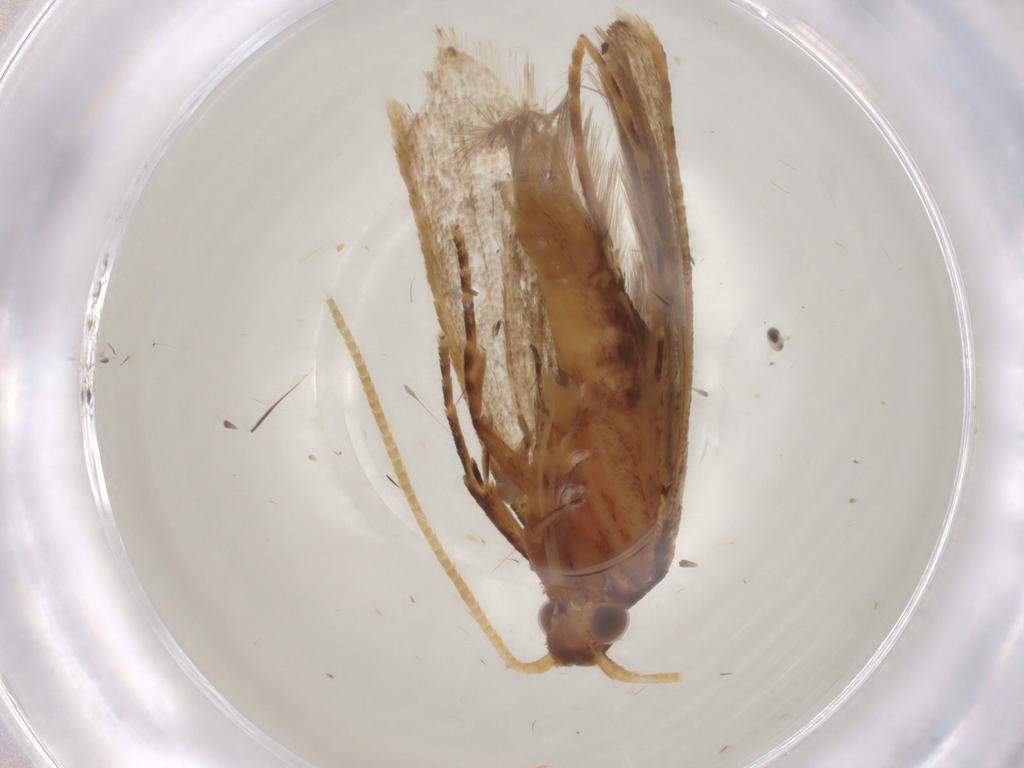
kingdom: Animalia
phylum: Arthropoda
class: Insecta
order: Lepidoptera
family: Lecithoceridae
